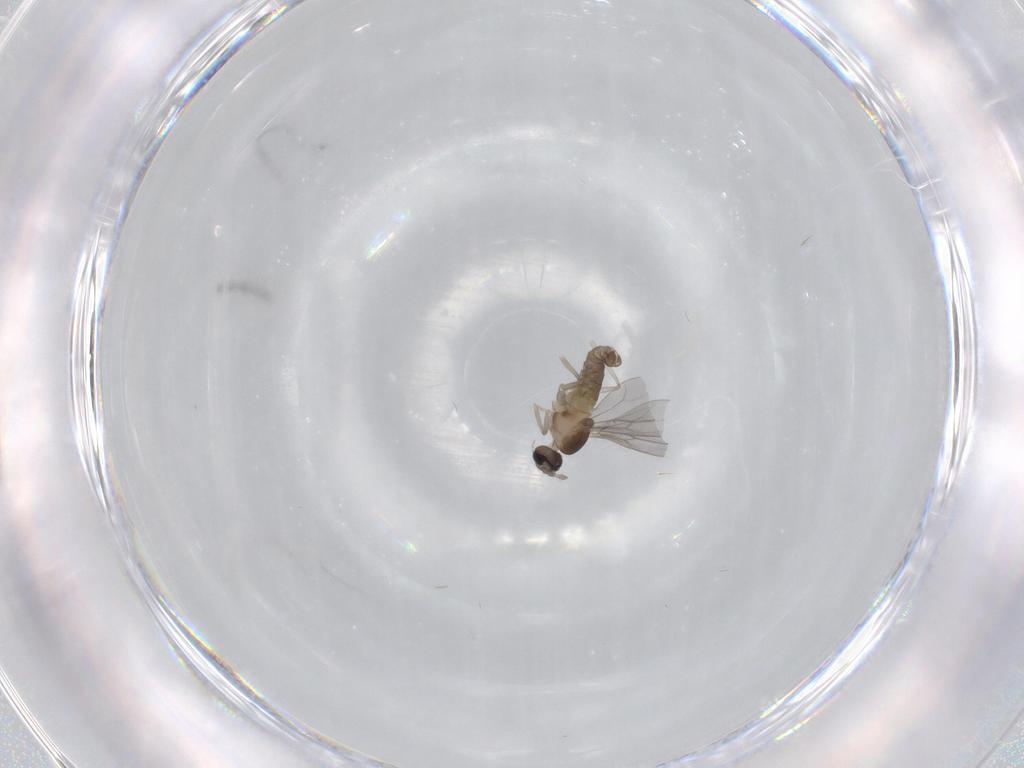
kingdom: Animalia
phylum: Arthropoda
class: Insecta
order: Diptera
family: Cecidomyiidae
